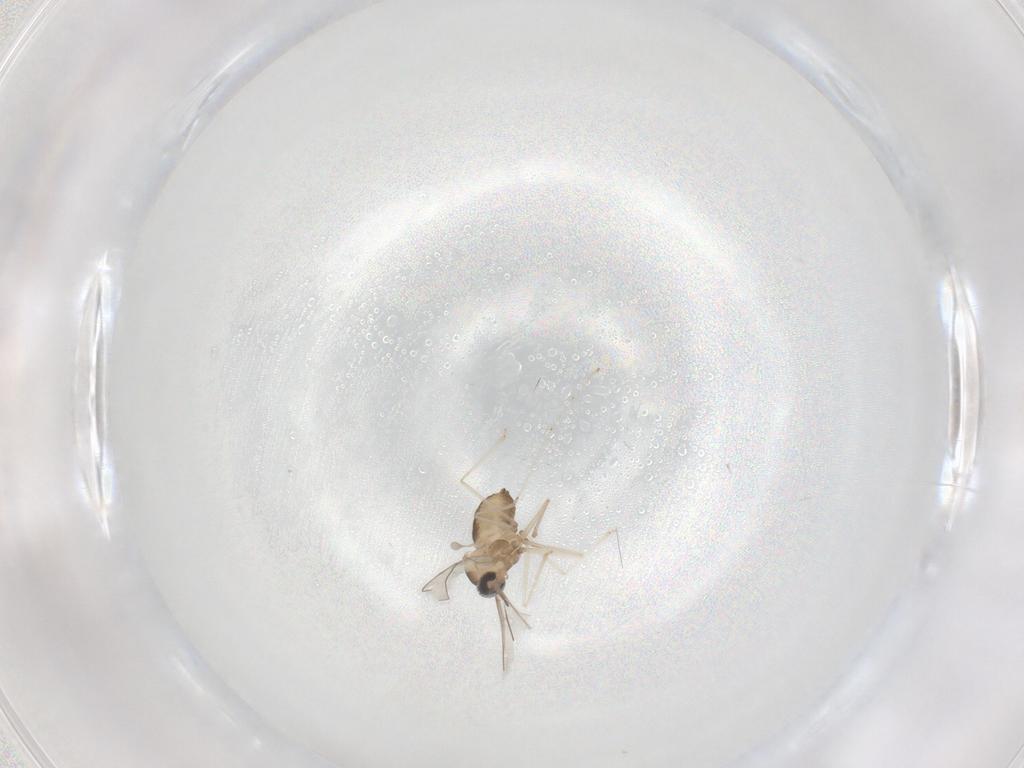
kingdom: Animalia
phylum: Arthropoda
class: Insecta
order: Diptera
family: Cecidomyiidae
